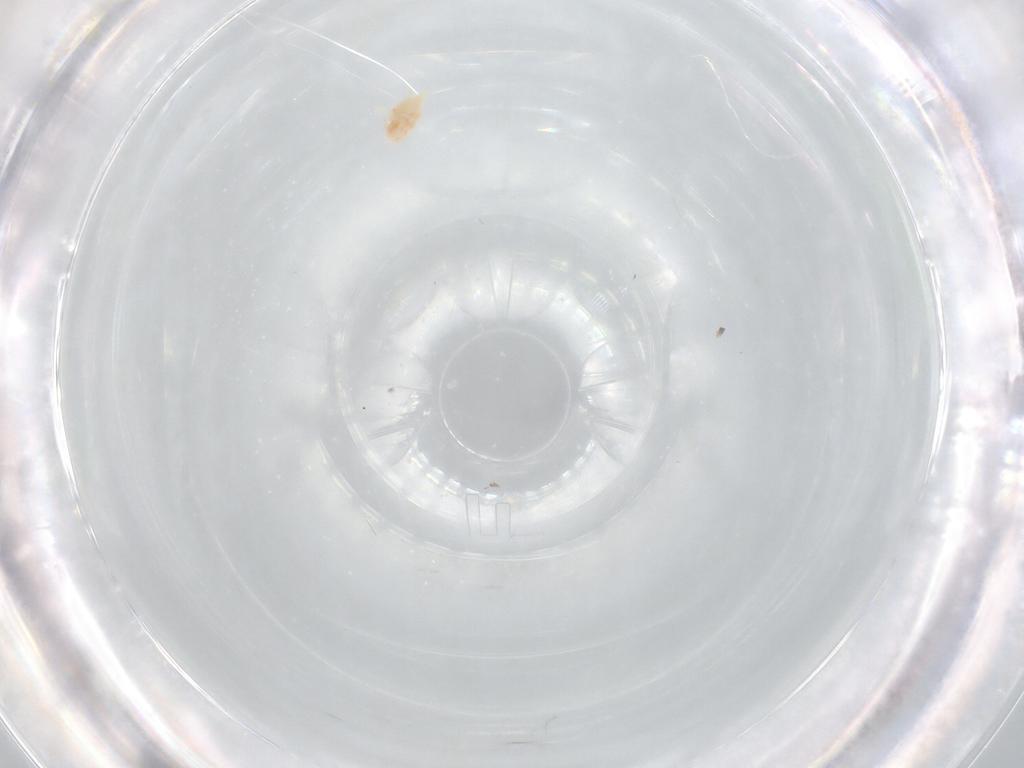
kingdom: Animalia
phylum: Arthropoda
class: Arachnida
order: Trombidiformes
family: Bdellidae
